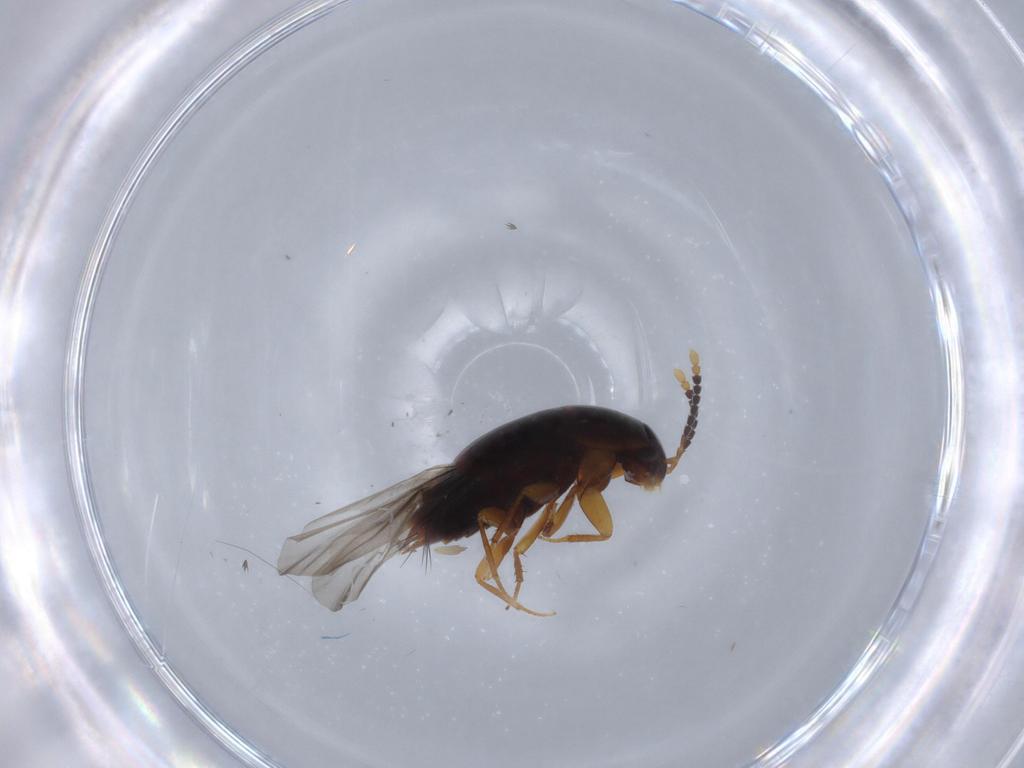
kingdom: Animalia
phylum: Arthropoda
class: Insecta
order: Coleoptera
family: Staphylinidae
